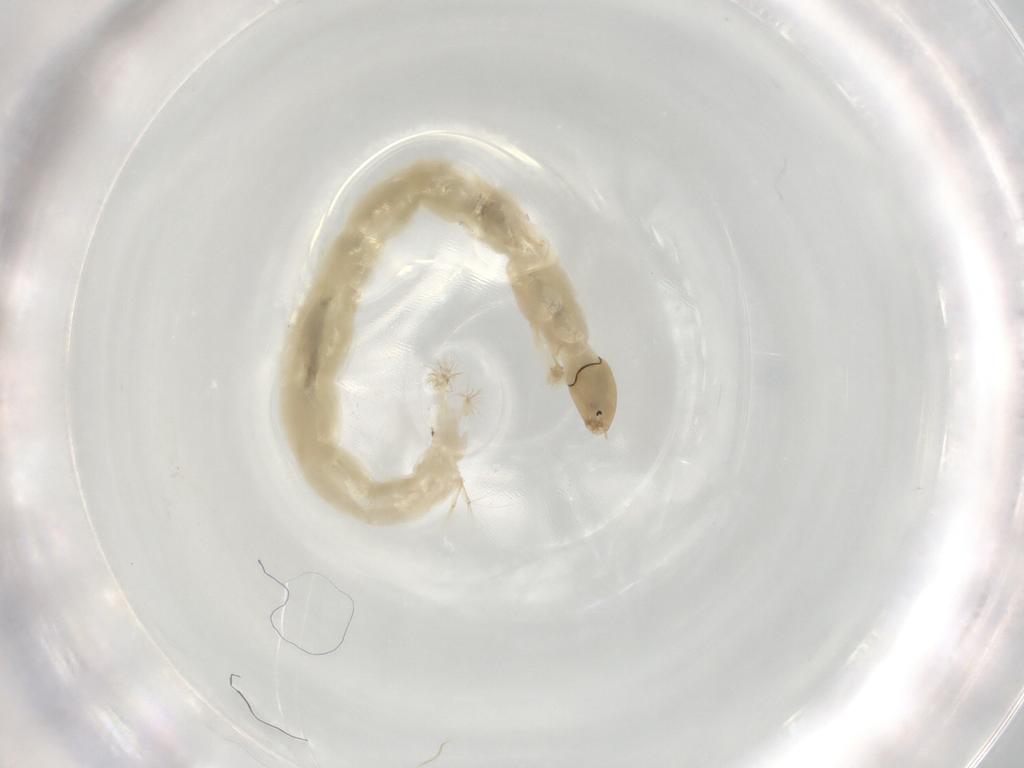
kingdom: Animalia
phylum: Arthropoda
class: Insecta
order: Diptera
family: Chironomidae
